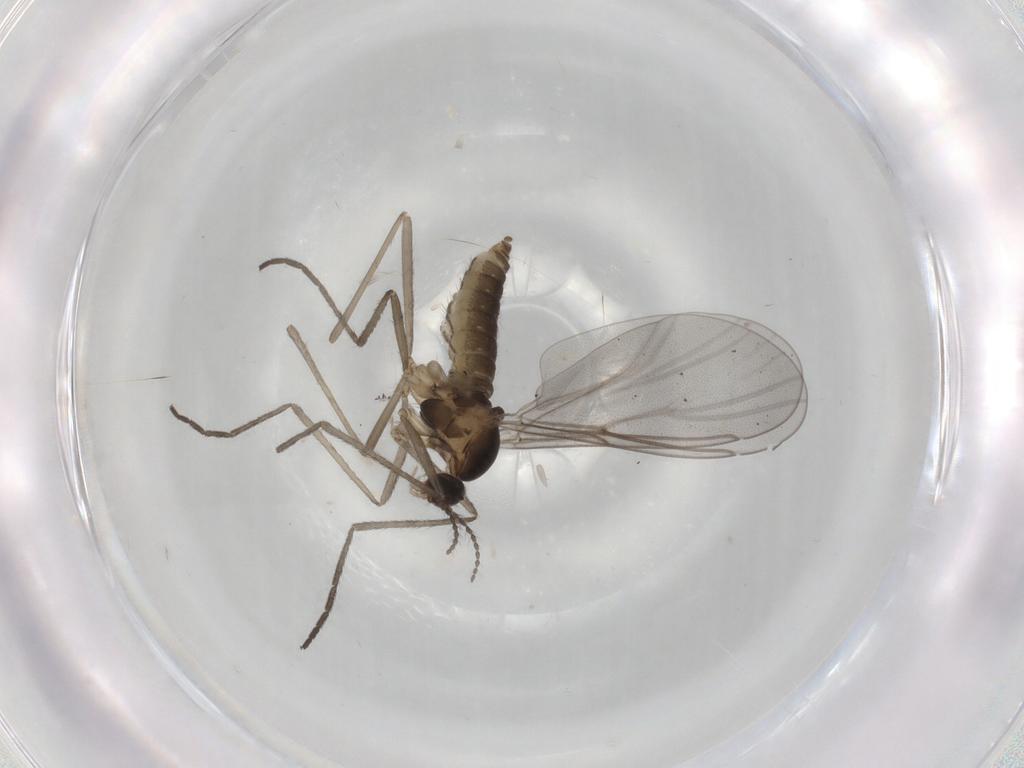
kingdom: Animalia
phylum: Arthropoda
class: Insecta
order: Diptera
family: Cecidomyiidae
